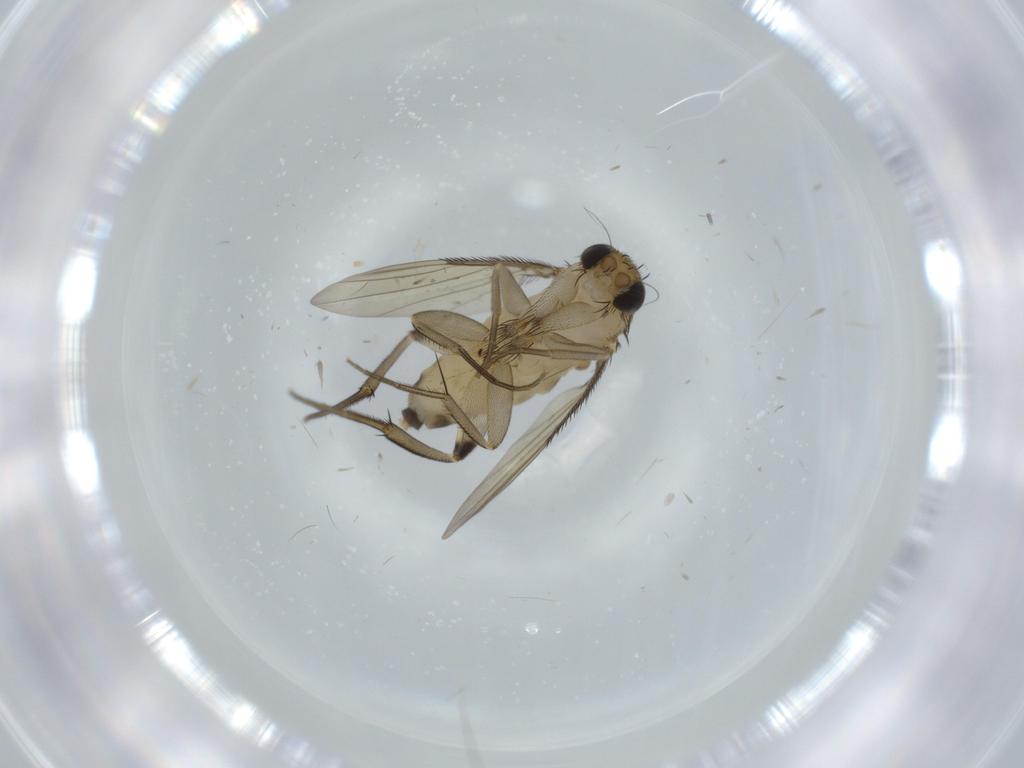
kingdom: Animalia
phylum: Arthropoda
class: Insecta
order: Diptera
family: Phoridae
